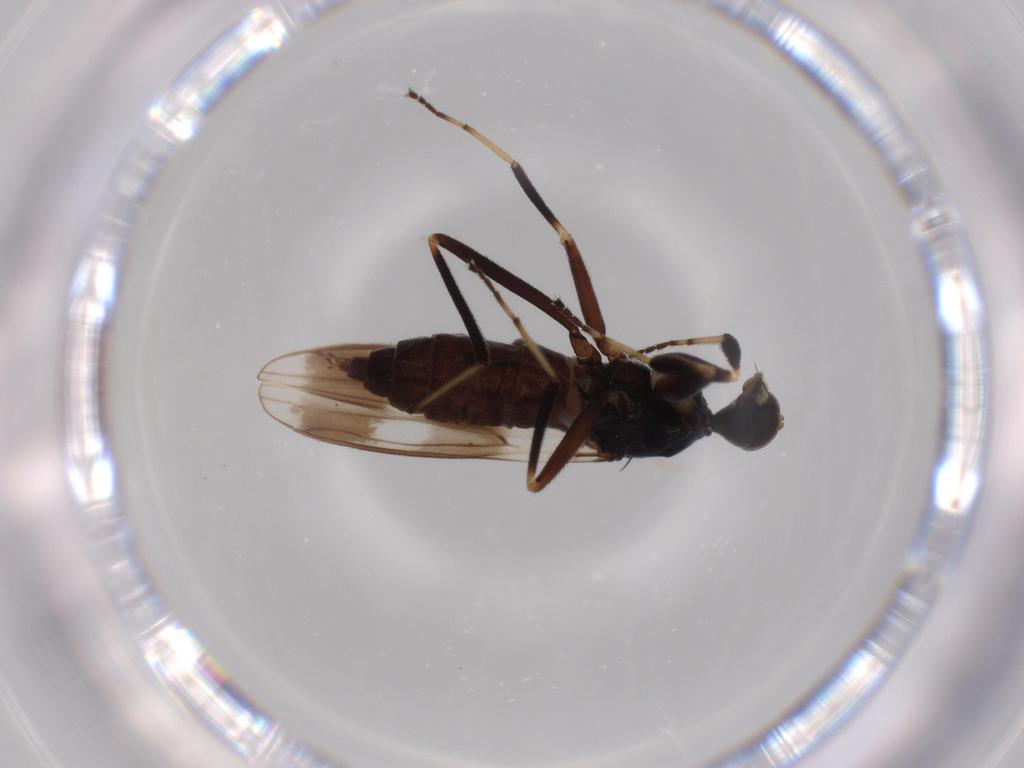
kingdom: Animalia
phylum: Arthropoda
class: Insecta
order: Diptera
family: Hybotidae
